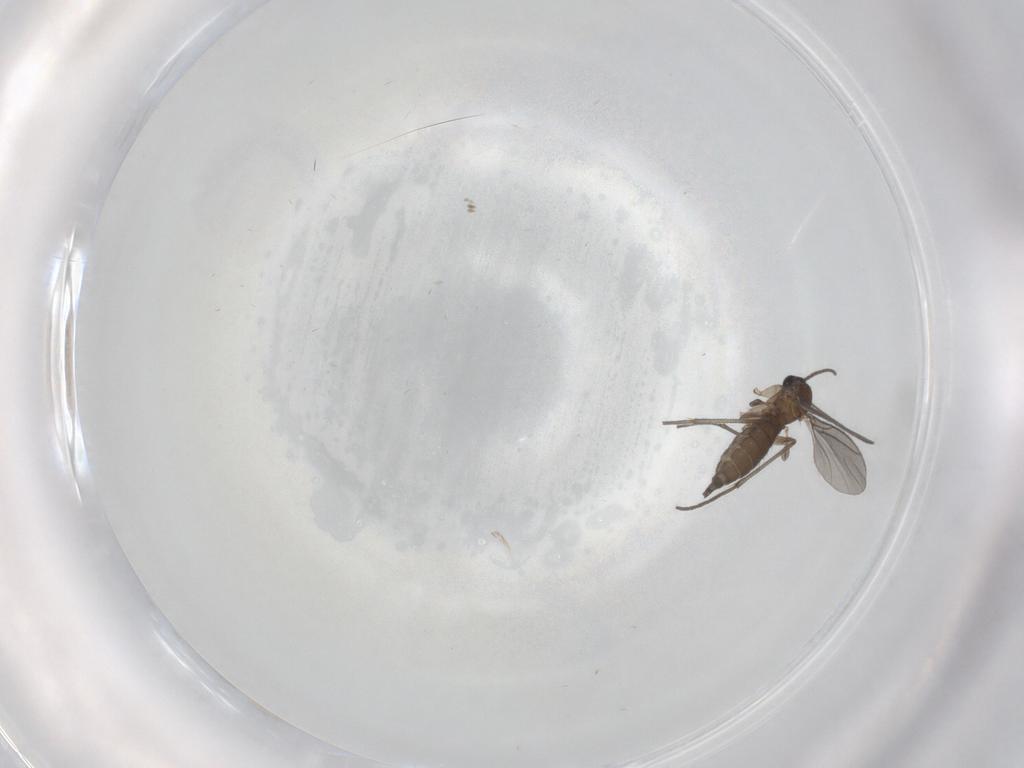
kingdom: Animalia
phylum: Arthropoda
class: Insecta
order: Diptera
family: Sciaridae
